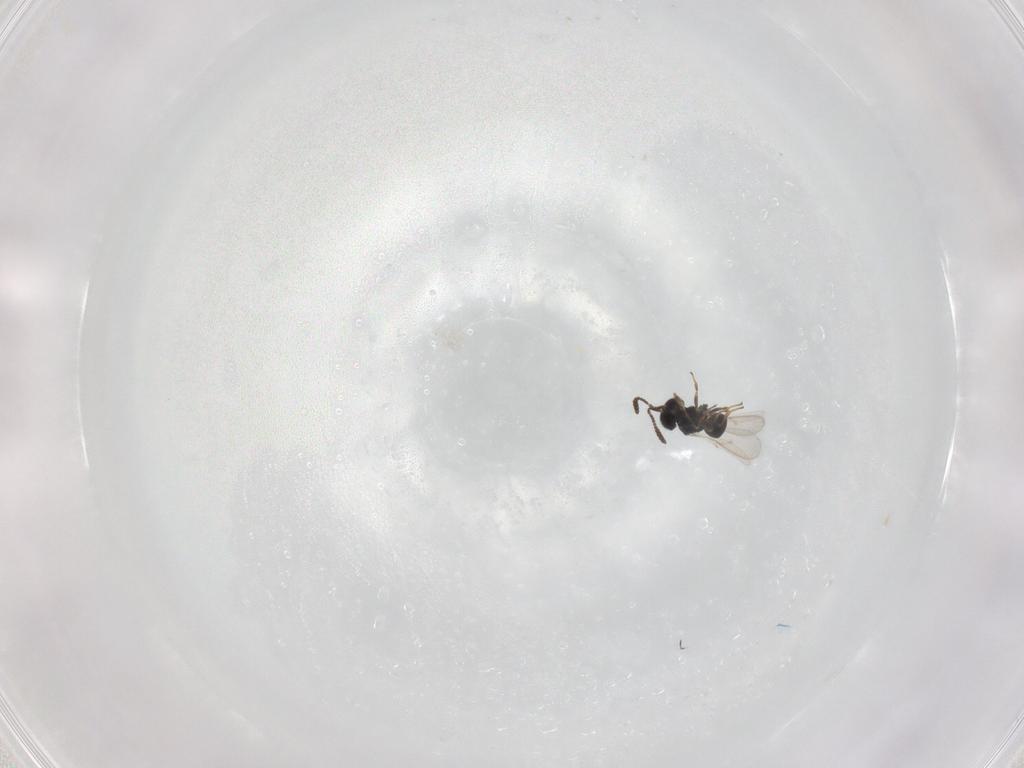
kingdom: Animalia
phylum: Arthropoda
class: Insecta
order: Hymenoptera
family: Scelionidae
